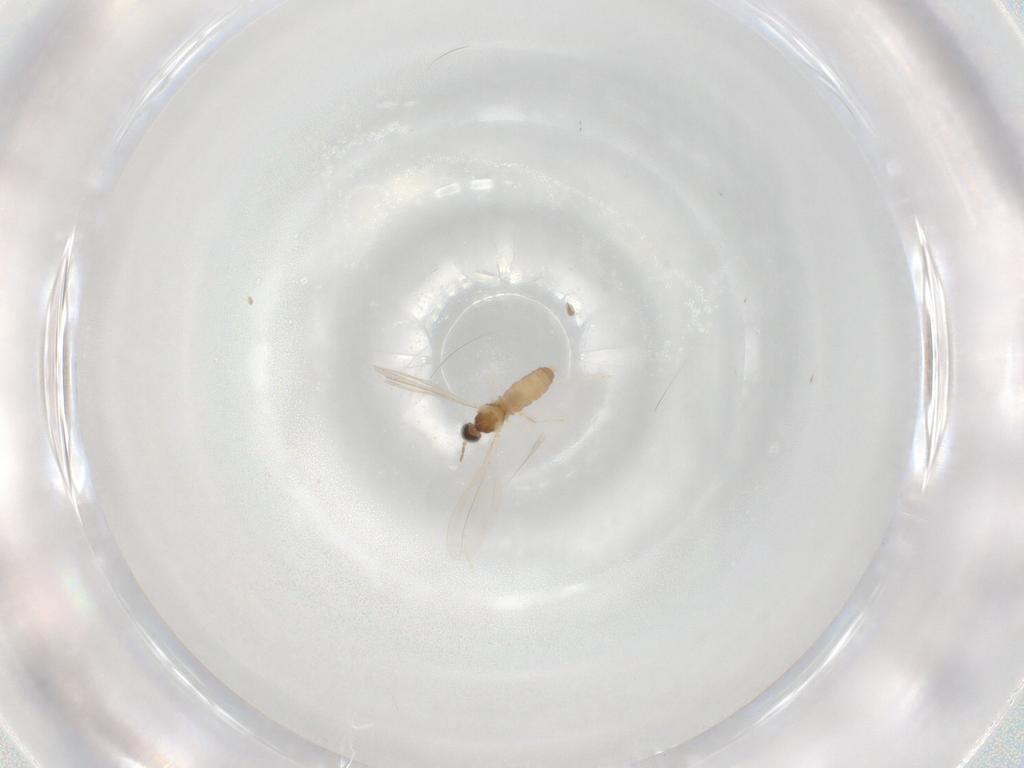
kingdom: Animalia
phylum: Arthropoda
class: Insecta
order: Diptera
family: Cecidomyiidae
